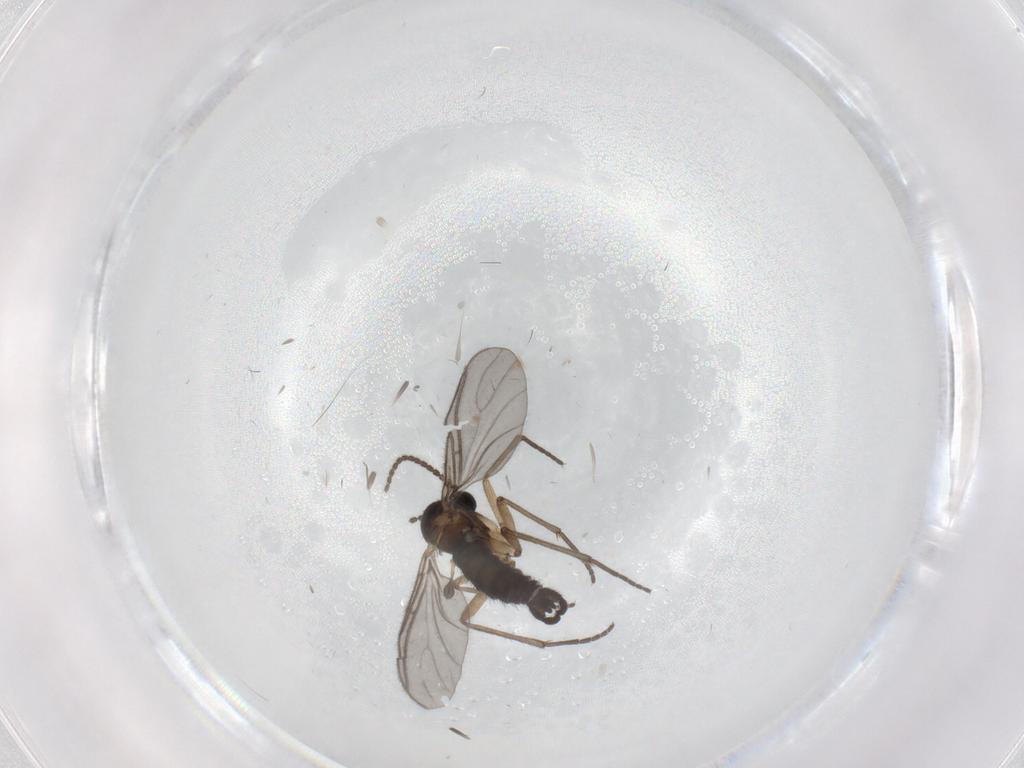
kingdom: Animalia
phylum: Arthropoda
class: Insecta
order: Diptera
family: Sciaridae
